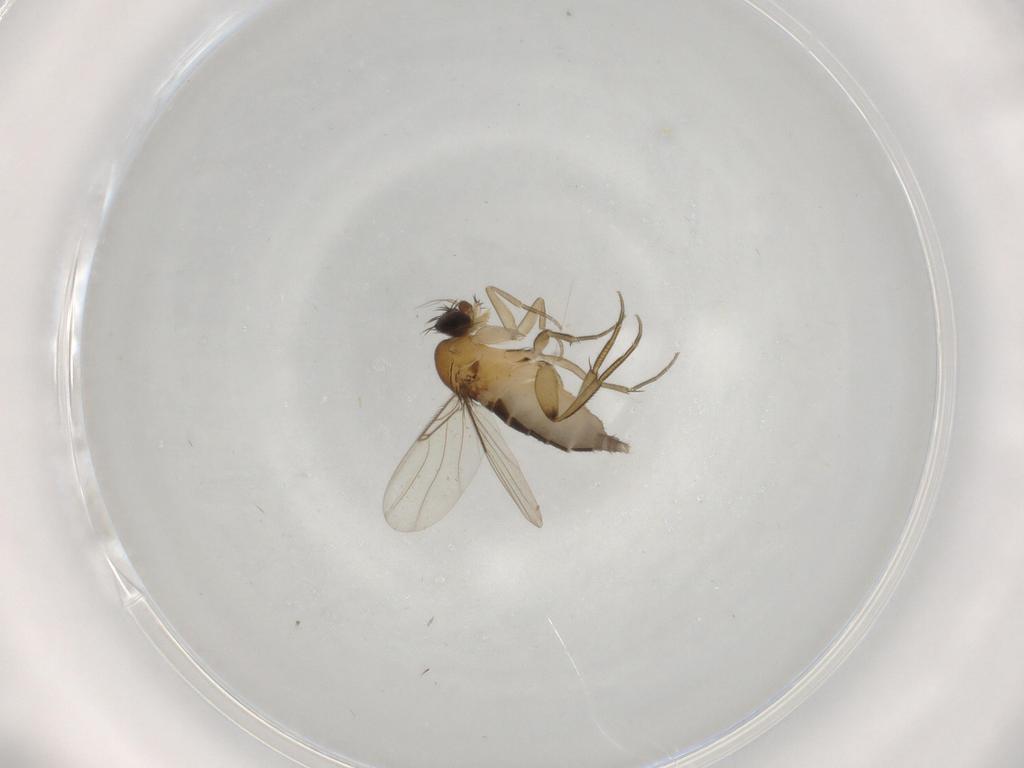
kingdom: Animalia
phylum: Arthropoda
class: Insecta
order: Diptera
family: Phoridae
